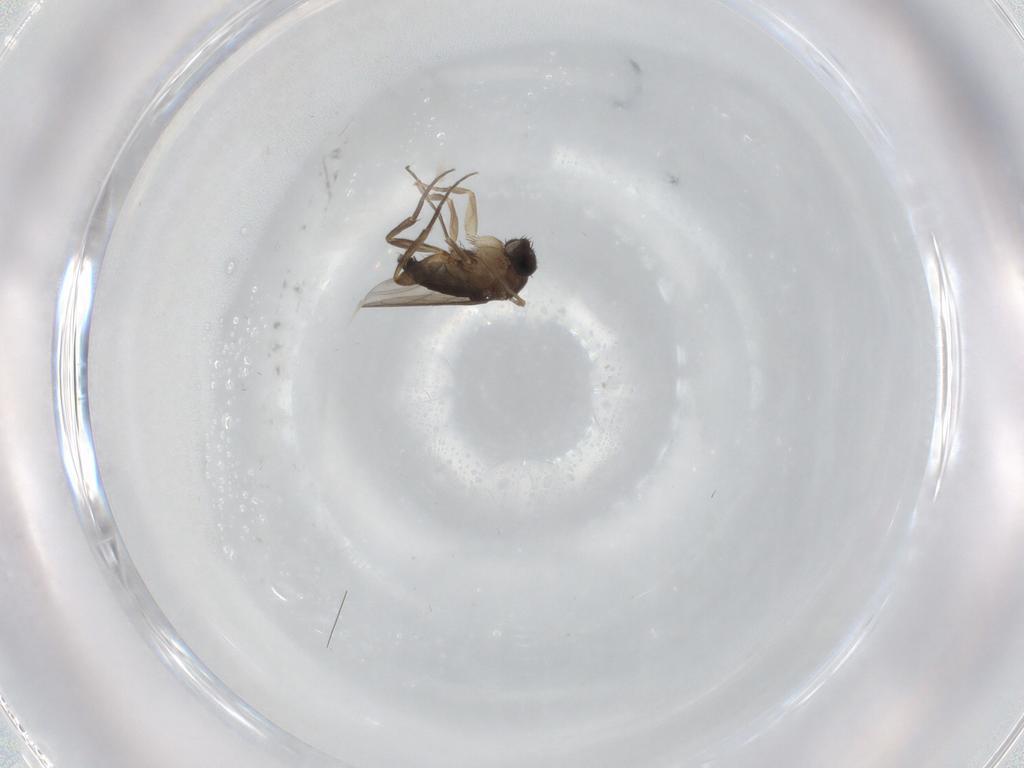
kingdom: Animalia
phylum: Arthropoda
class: Insecta
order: Diptera
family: Phoridae
